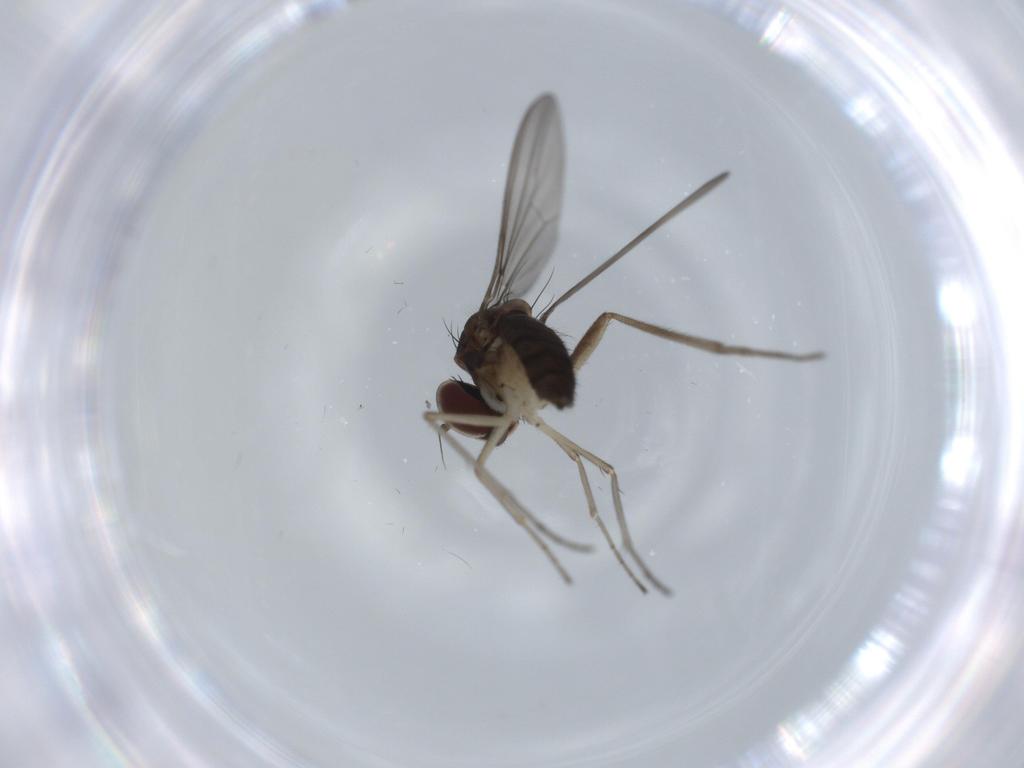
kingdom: Animalia
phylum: Arthropoda
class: Insecta
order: Diptera
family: Dolichopodidae
